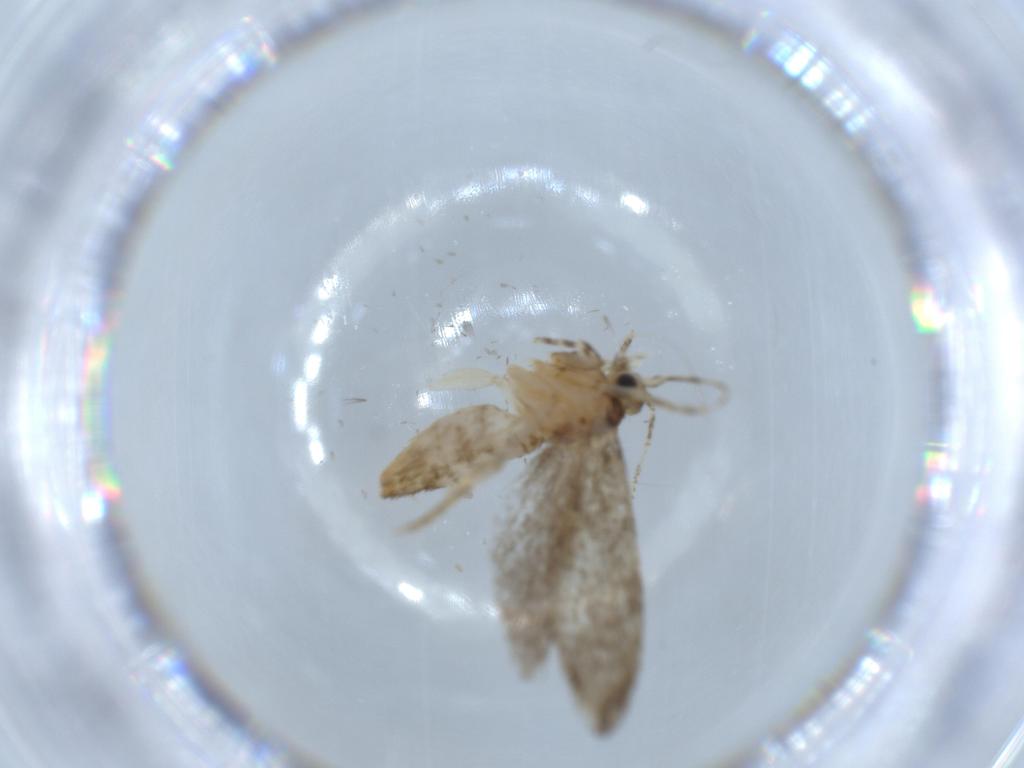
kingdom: Animalia
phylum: Arthropoda
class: Insecta
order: Lepidoptera
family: Tineidae
